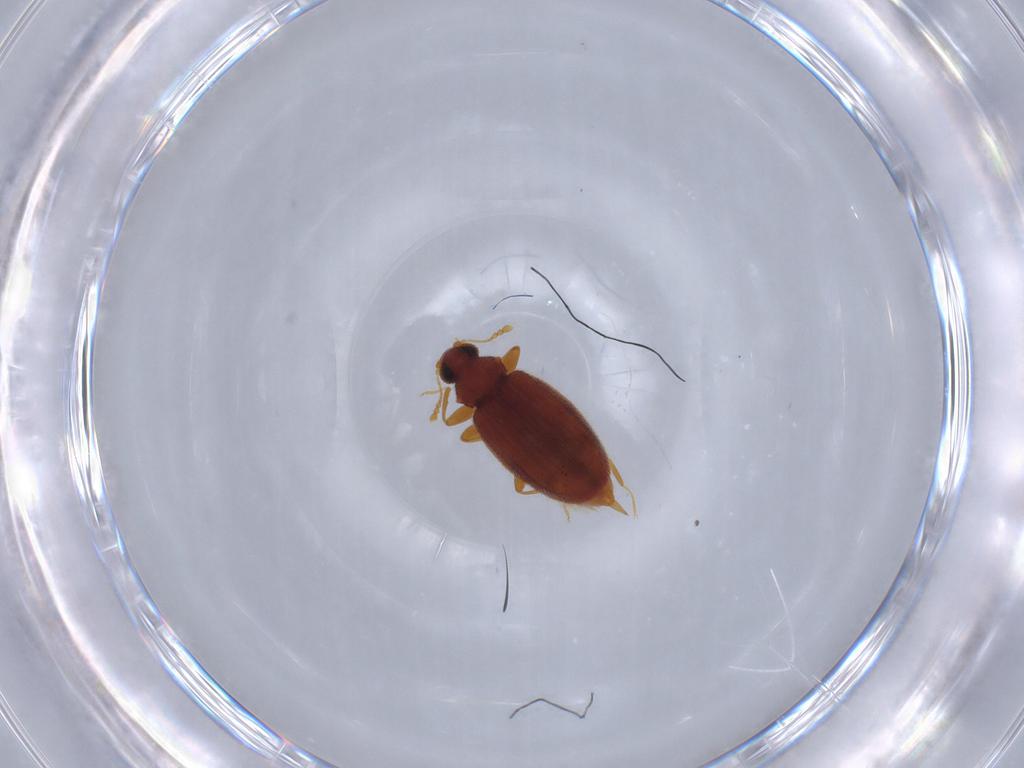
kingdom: Animalia
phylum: Arthropoda
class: Insecta
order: Coleoptera
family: Latridiidae
